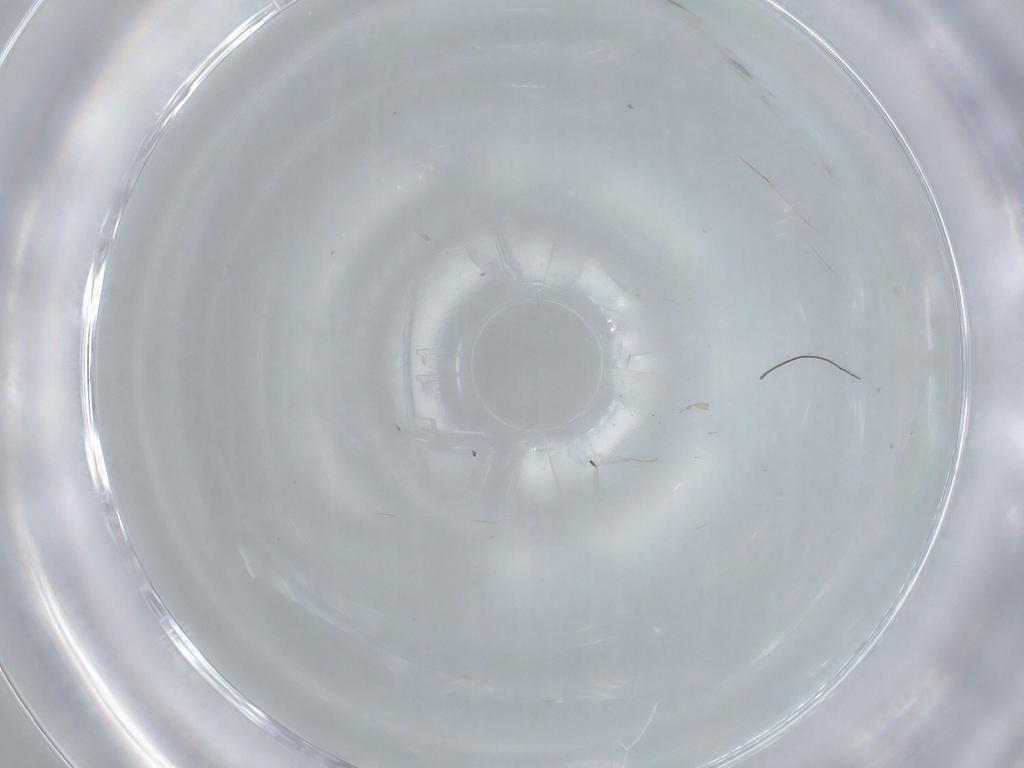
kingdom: Animalia
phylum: Arthropoda
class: Insecta
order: Diptera
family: Cecidomyiidae
